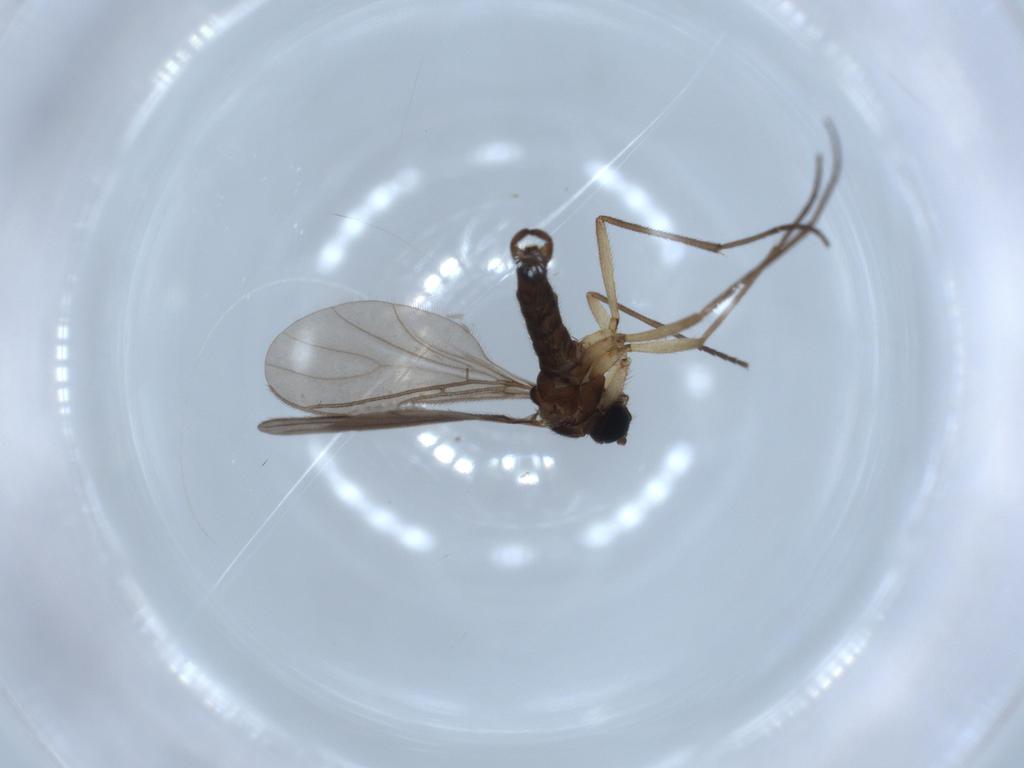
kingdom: Animalia
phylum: Arthropoda
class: Insecta
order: Diptera
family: Sciaridae
